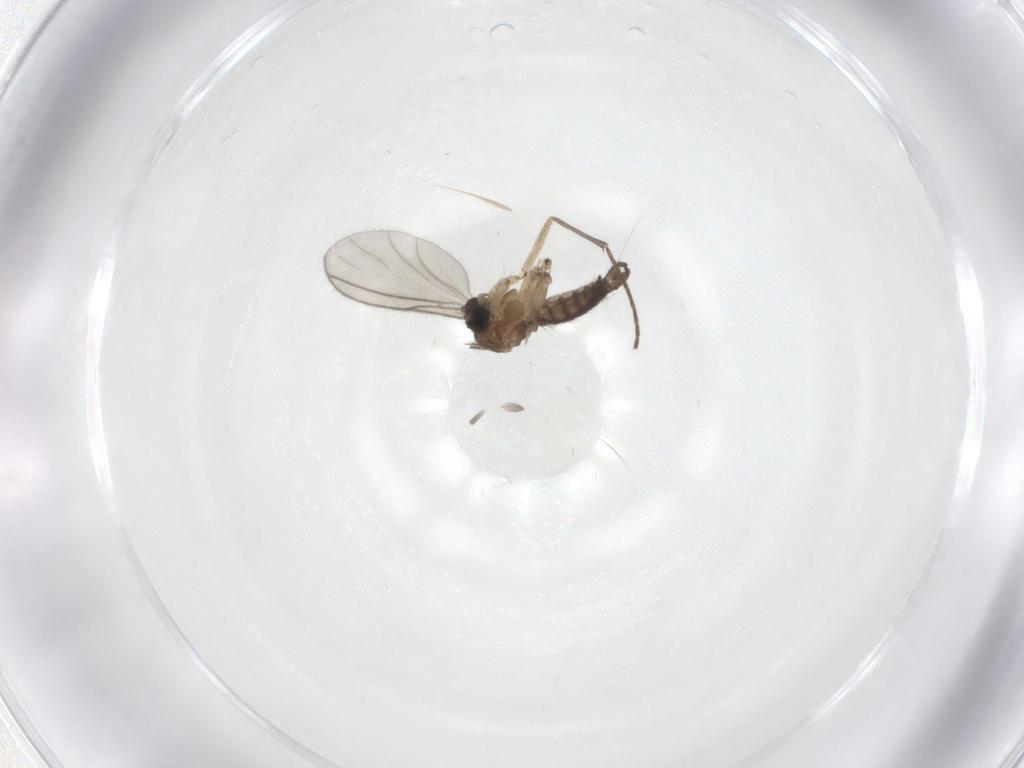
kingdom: Animalia
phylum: Arthropoda
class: Insecta
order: Diptera
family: Sciaridae
